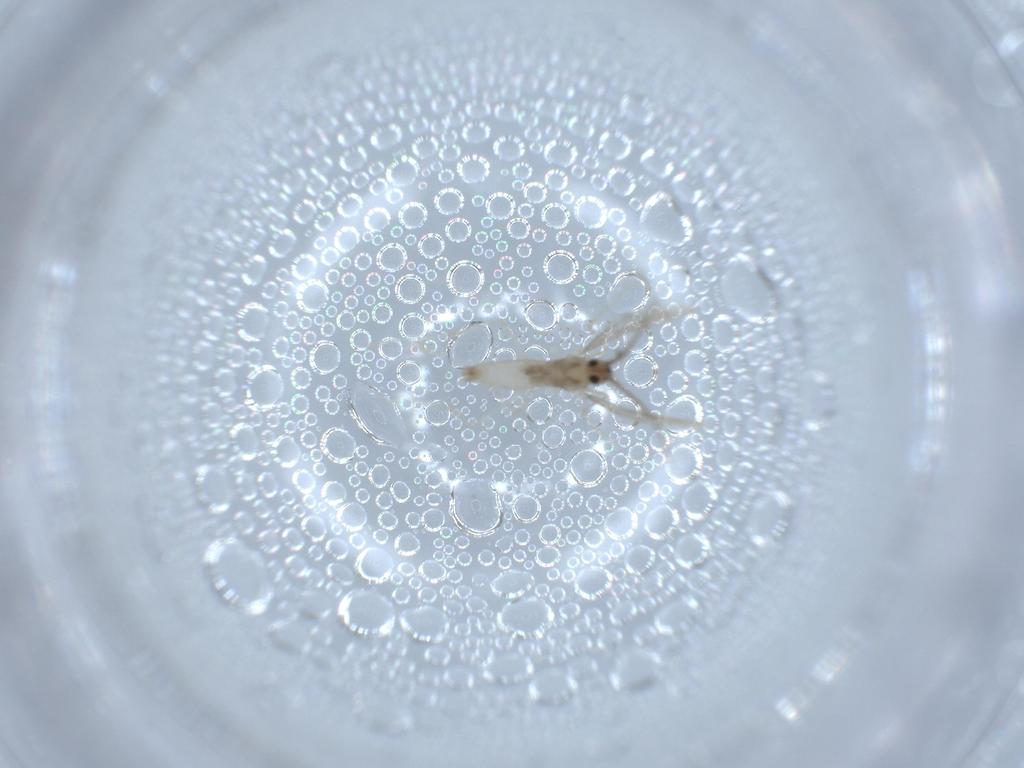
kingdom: Animalia
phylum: Arthropoda
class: Insecta
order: Diptera
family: Cecidomyiidae
